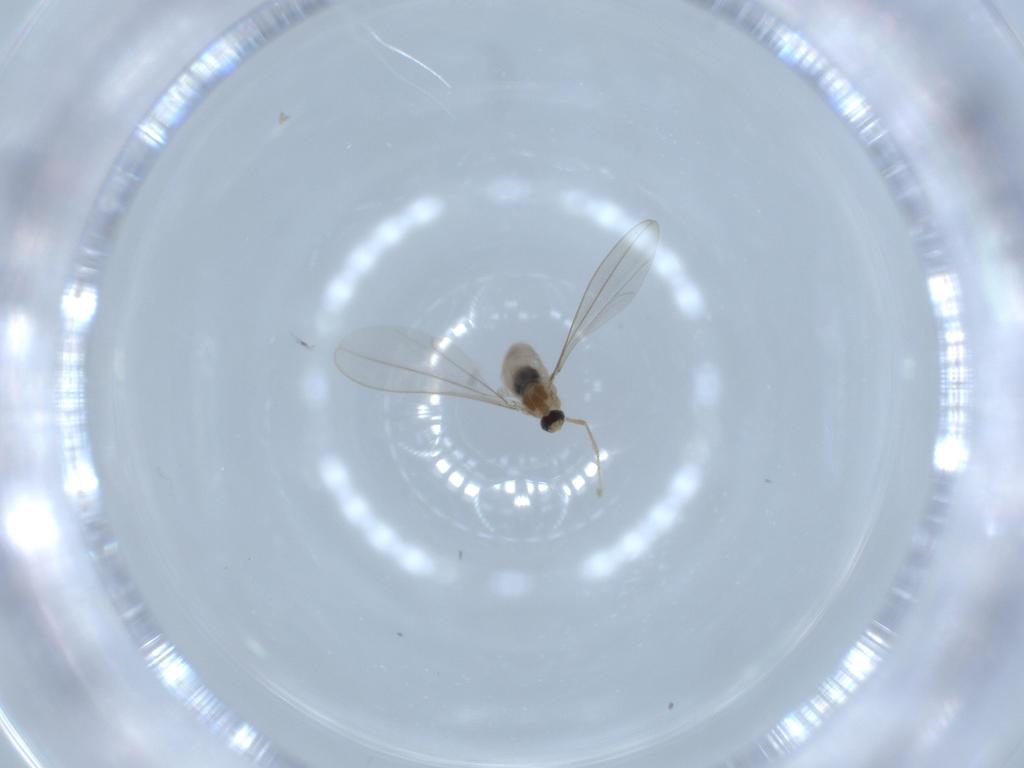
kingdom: Animalia
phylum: Arthropoda
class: Insecta
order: Diptera
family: Cecidomyiidae
